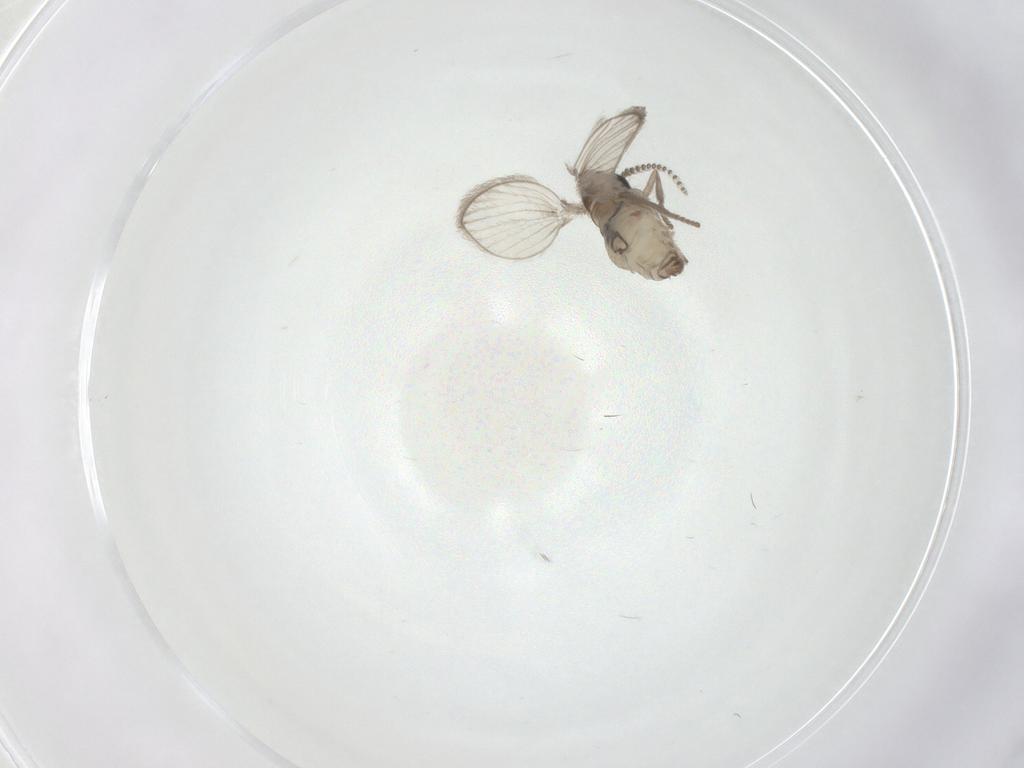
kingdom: Animalia
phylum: Arthropoda
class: Insecta
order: Diptera
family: Psychodidae
